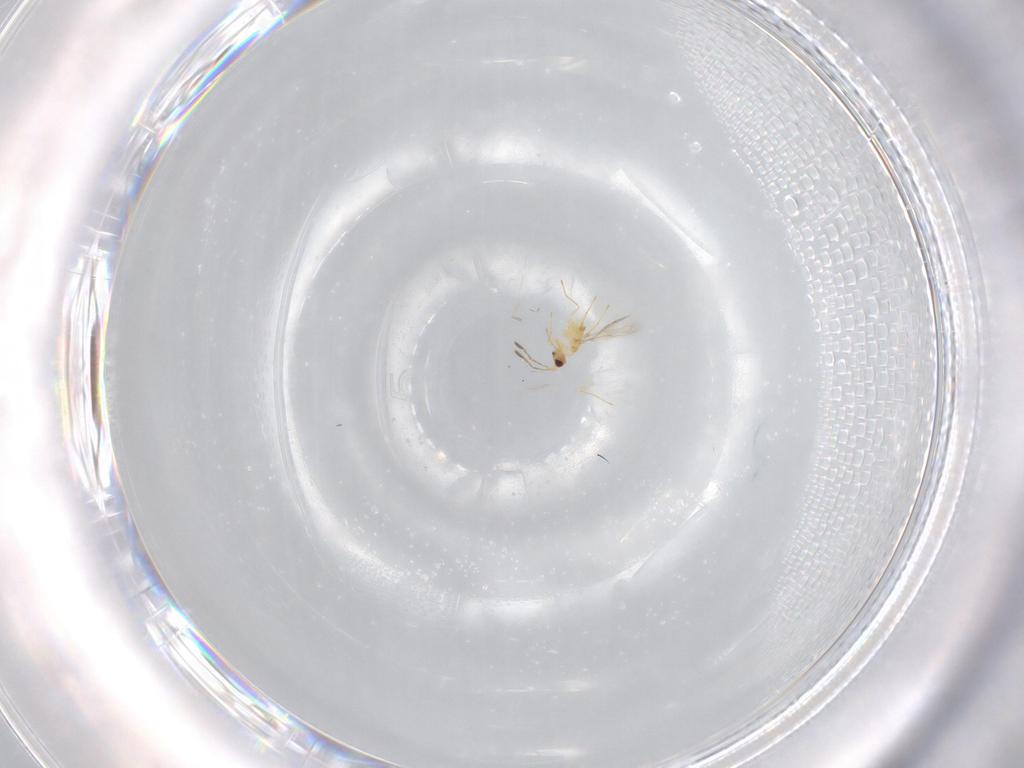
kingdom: Animalia
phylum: Arthropoda
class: Insecta
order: Hymenoptera
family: Mymaridae
